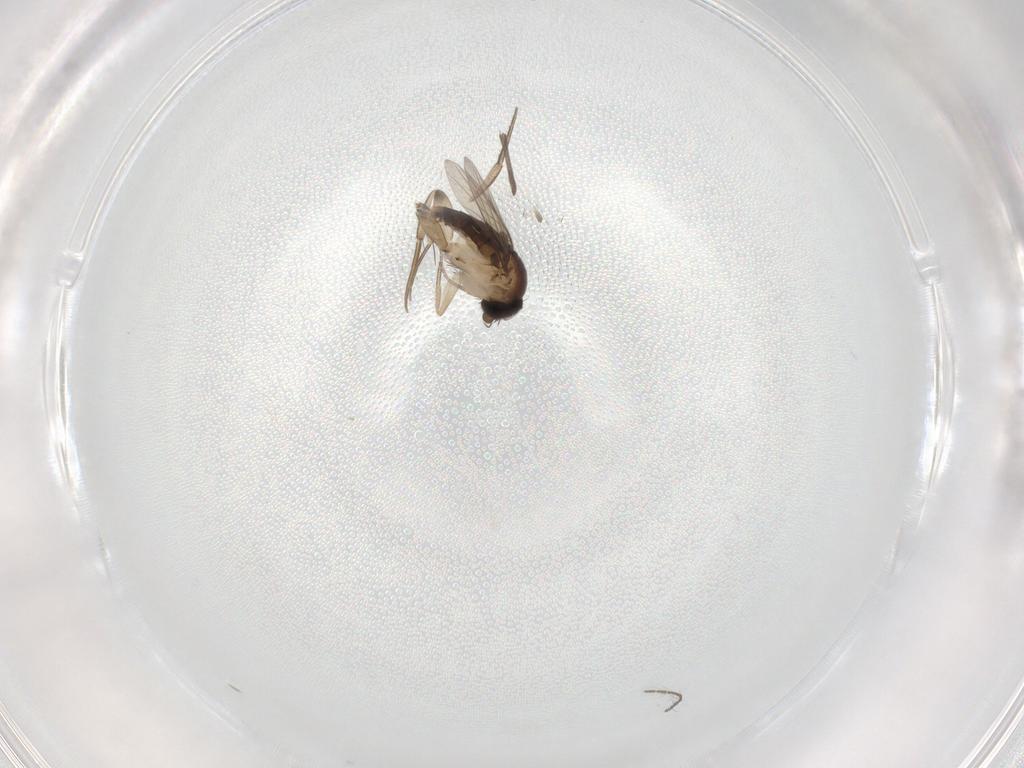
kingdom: Animalia
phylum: Arthropoda
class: Insecta
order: Diptera
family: Phoridae
